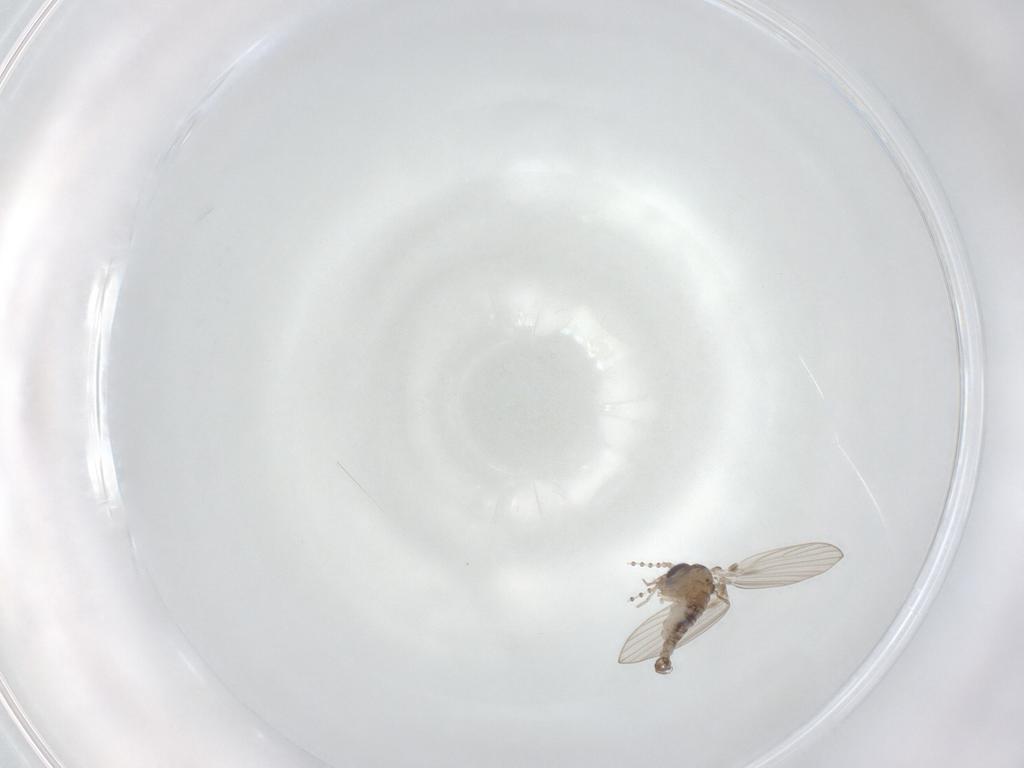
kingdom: Animalia
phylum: Arthropoda
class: Insecta
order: Diptera
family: Psychodidae
